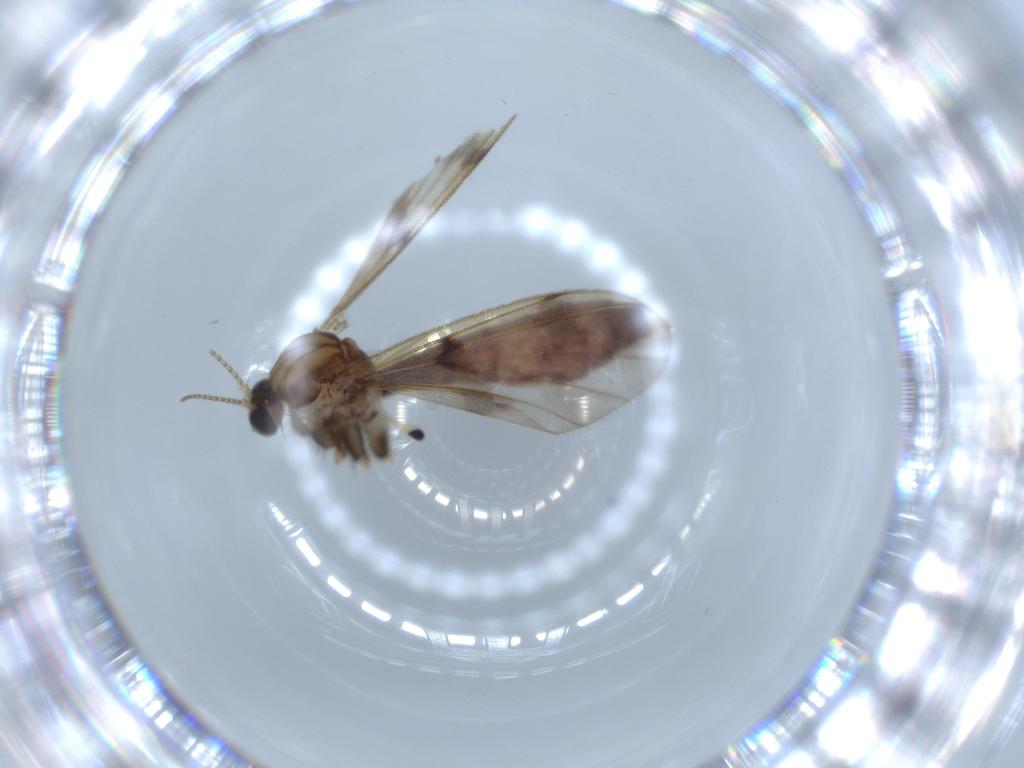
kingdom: Animalia
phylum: Arthropoda
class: Insecta
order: Diptera
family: Mycetophilidae
